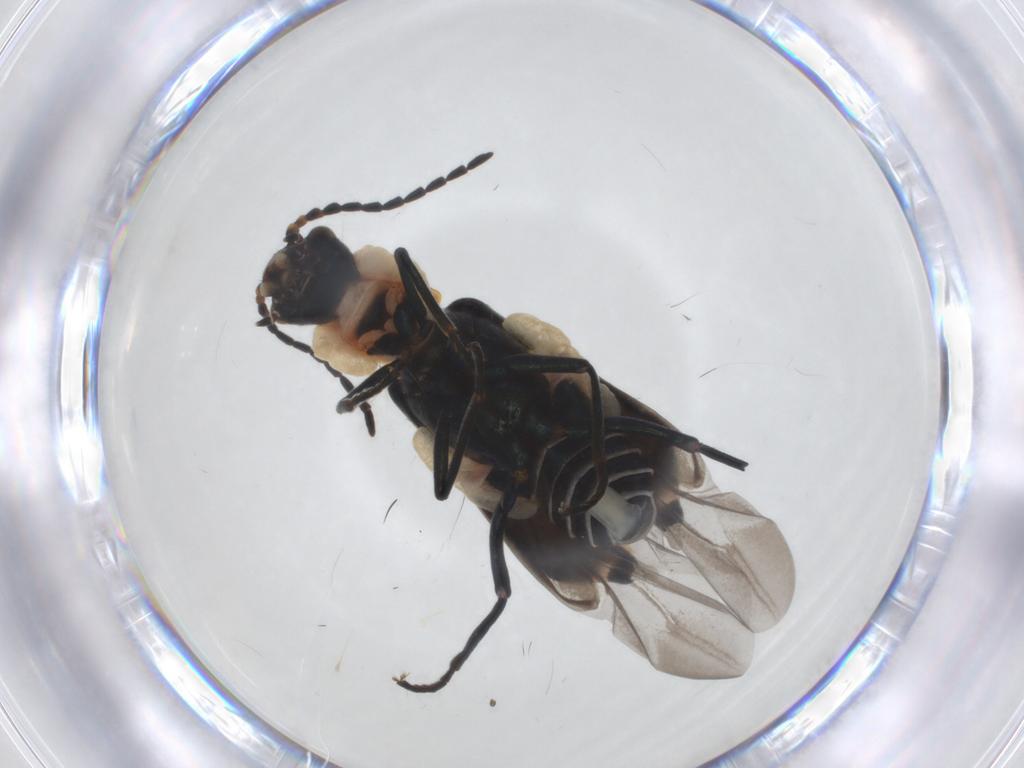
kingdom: Animalia
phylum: Arthropoda
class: Insecta
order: Coleoptera
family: Melyridae
